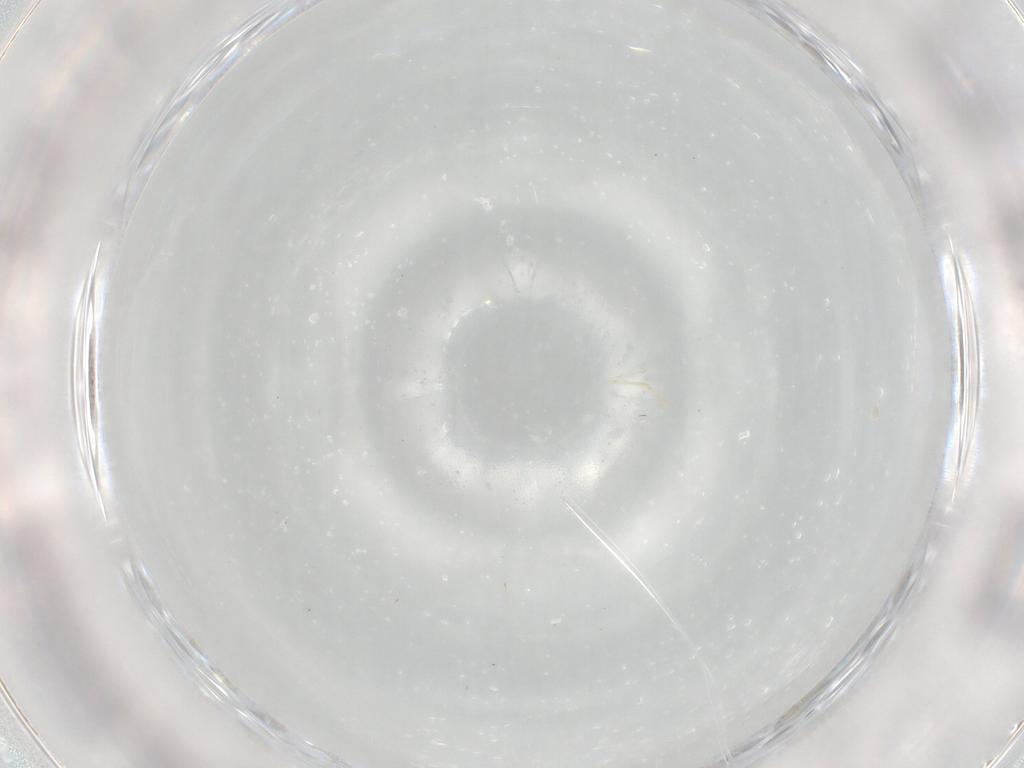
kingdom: Animalia
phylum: Arthropoda
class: Insecta
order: Diptera
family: Cecidomyiidae
